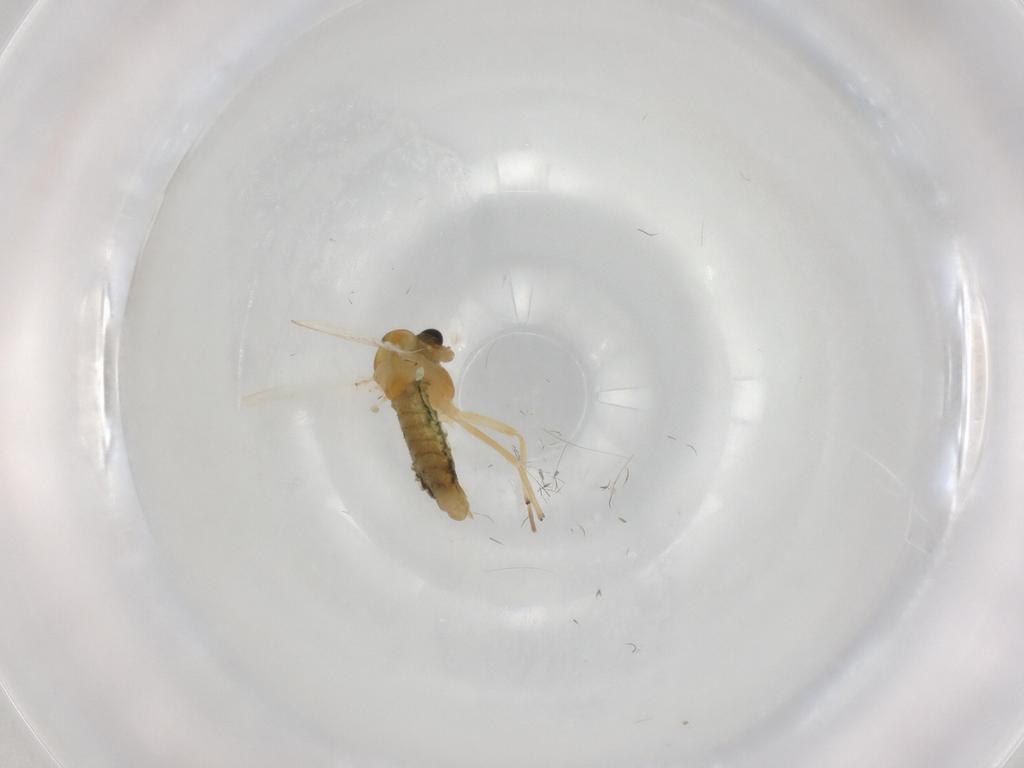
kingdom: Animalia
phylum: Arthropoda
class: Insecta
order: Diptera
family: Chironomidae
